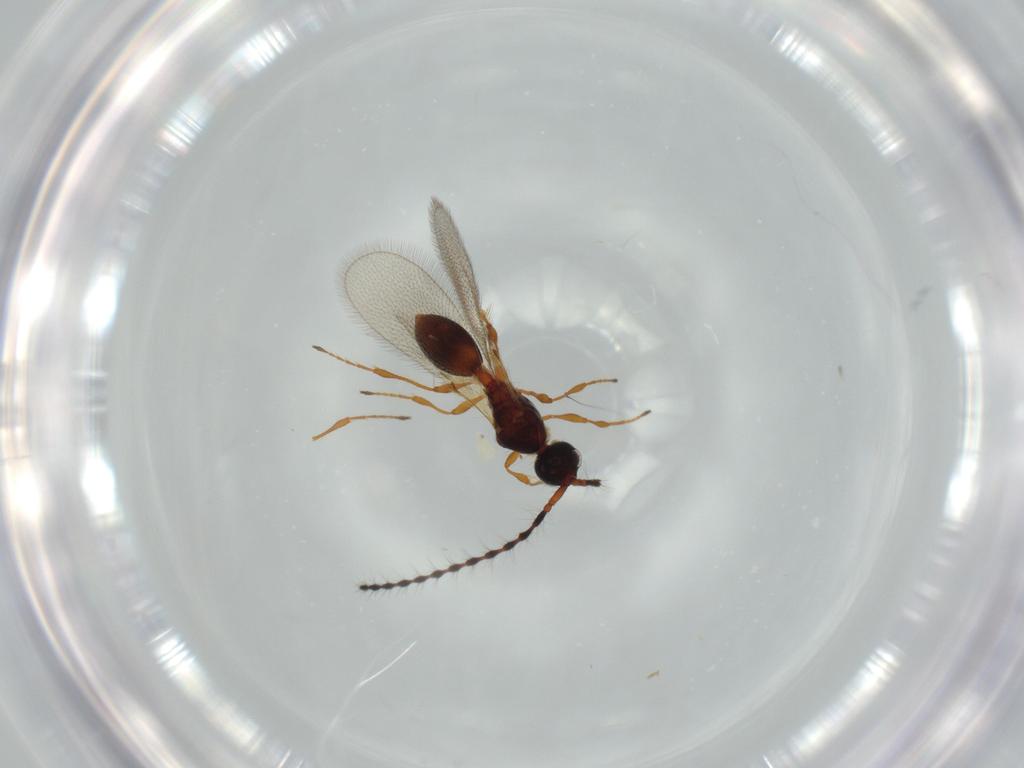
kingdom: Animalia
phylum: Arthropoda
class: Insecta
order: Hymenoptera
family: Diapriidae
